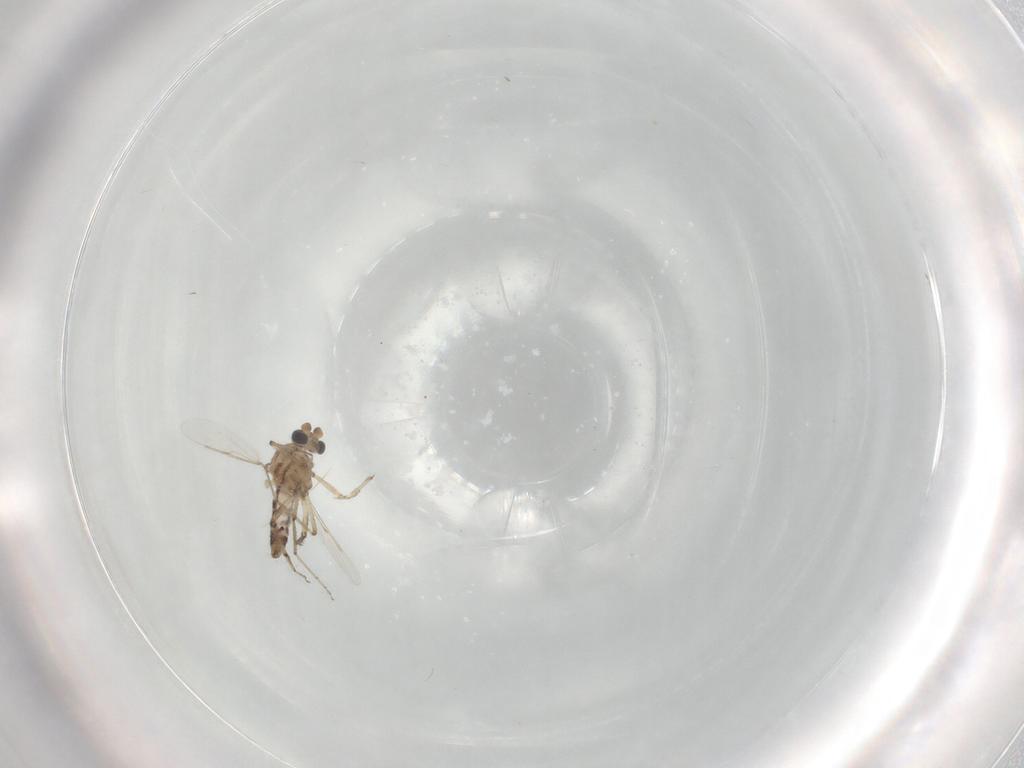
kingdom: Animalia
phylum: Arthropoda
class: Insecta
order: Diptera
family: Ceratopogonidae
